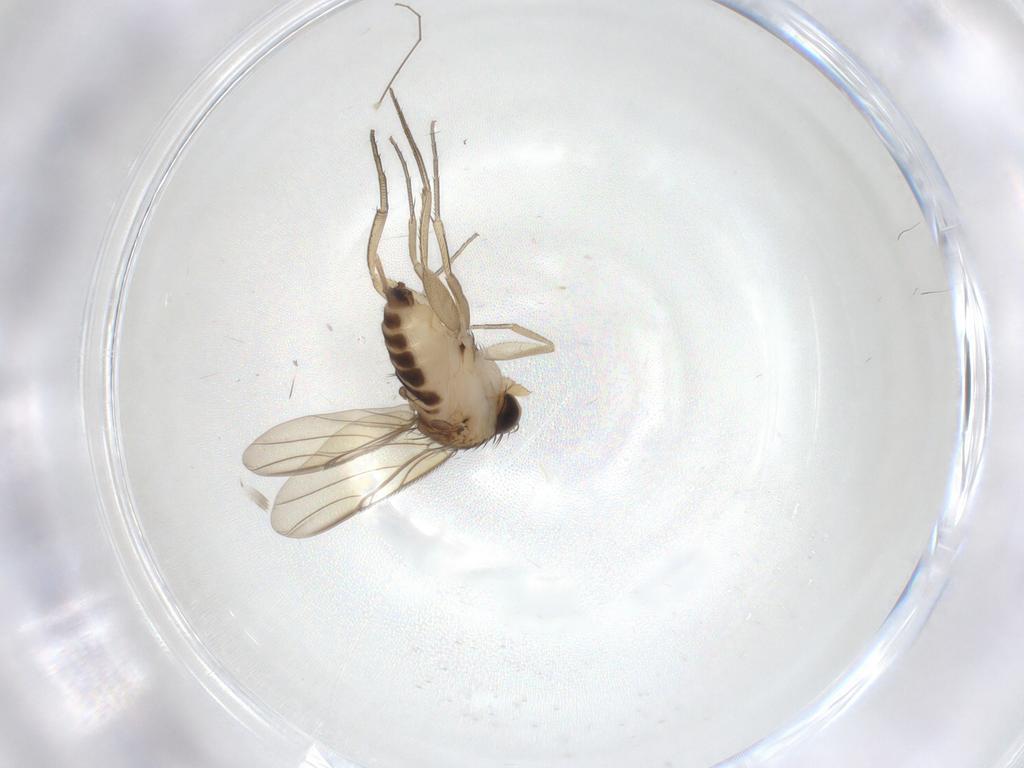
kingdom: Animalia
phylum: Arthropoda
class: Insecta
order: Diptera
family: Phoridae
